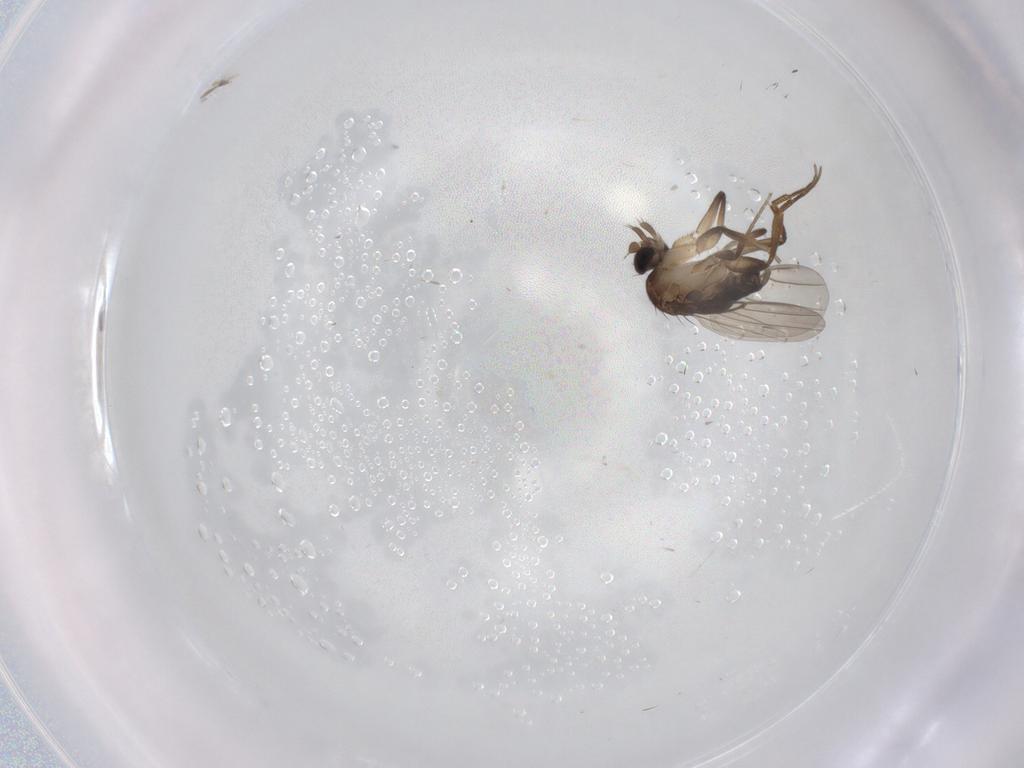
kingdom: Animalia
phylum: Arthropoda
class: Insecta
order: Diptera
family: Phoridae
